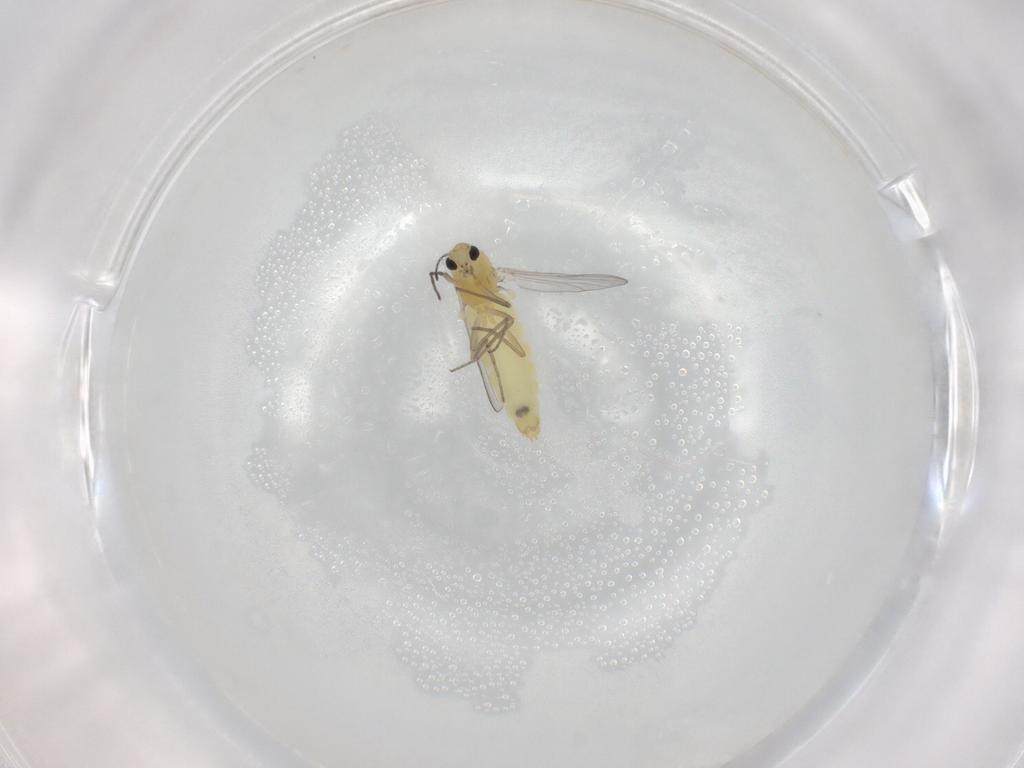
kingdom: Animalia
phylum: Arthropoda
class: Insecta
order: Diptera
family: Chironomidae
